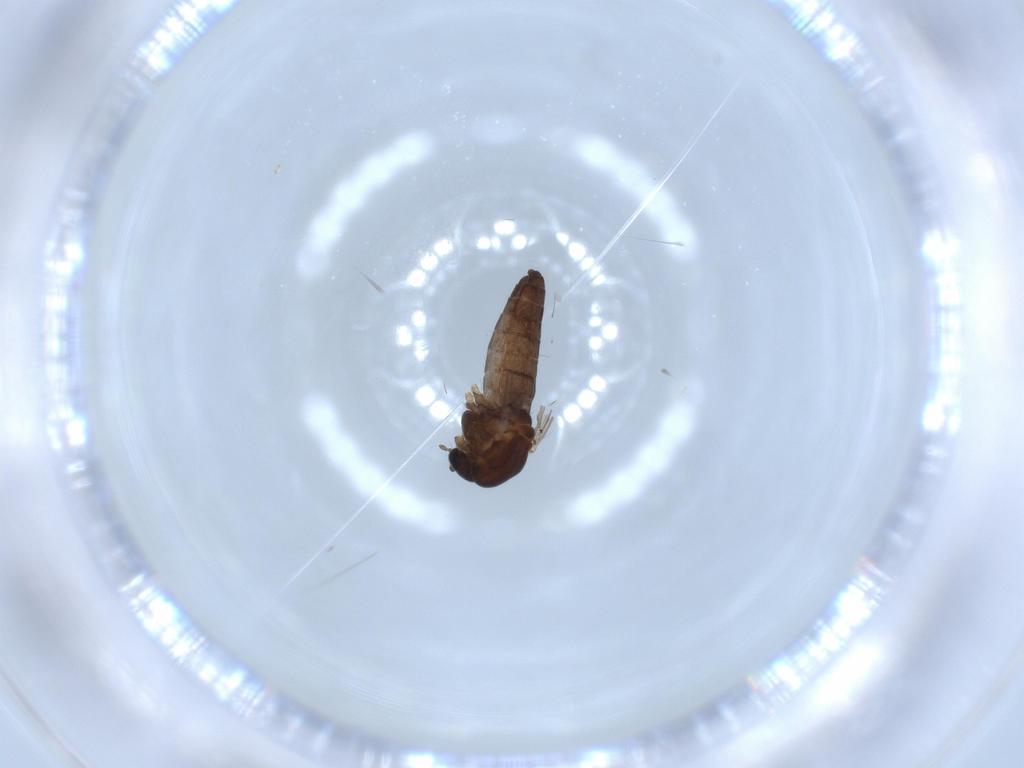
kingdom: Animalia
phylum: Arthropoda
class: Insecta
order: Diptera
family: Chironomidae
